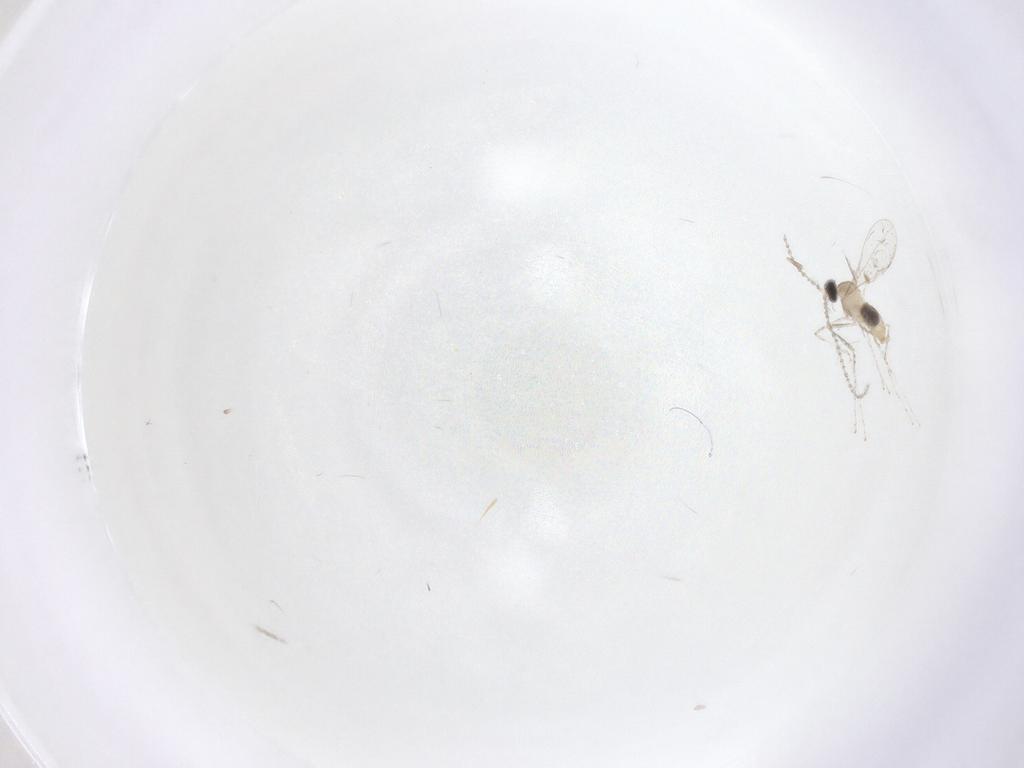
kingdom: Animalia
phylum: Arthropoda
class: Insecta
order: Diptera
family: Cecidomyiidae
